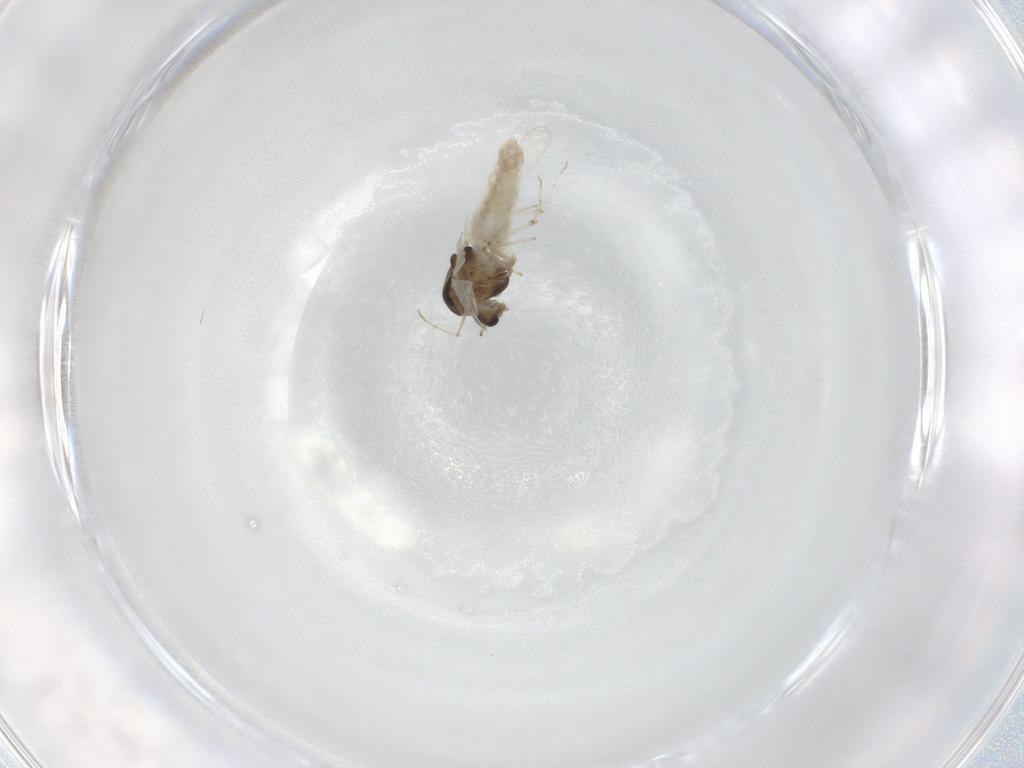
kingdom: Animalia
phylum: Arthropoda
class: Insecta
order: Diptera
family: Chironomidae
